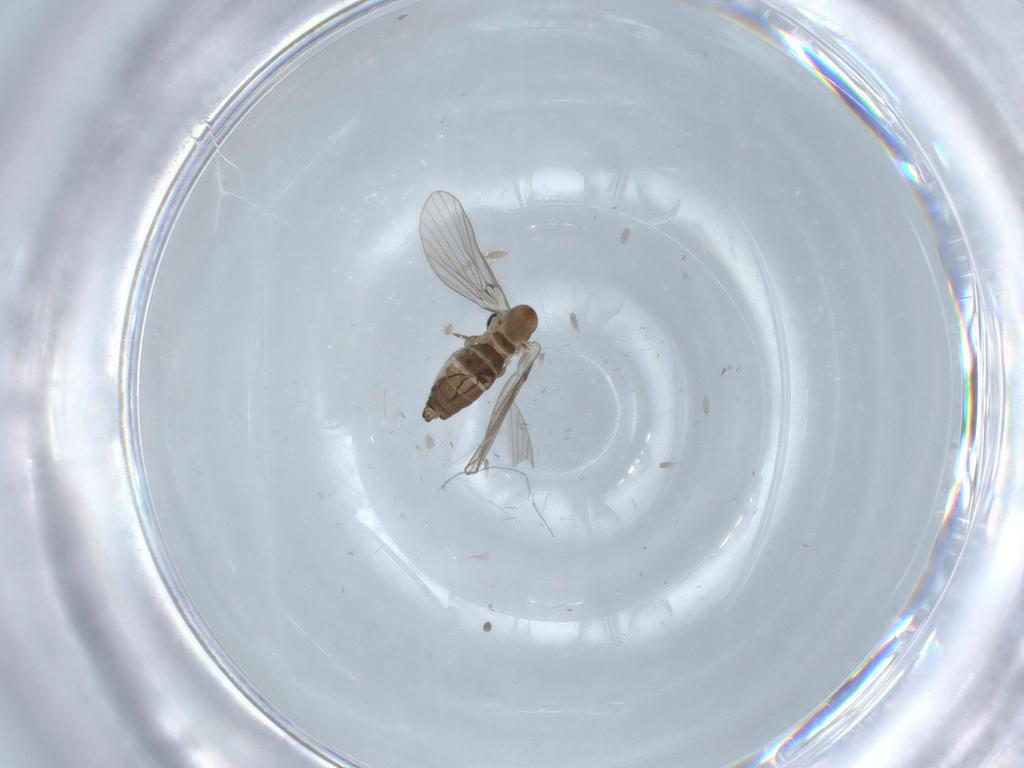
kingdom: Animalia
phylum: Arthropoda
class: Insecta
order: Diptera
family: Psychodidae
